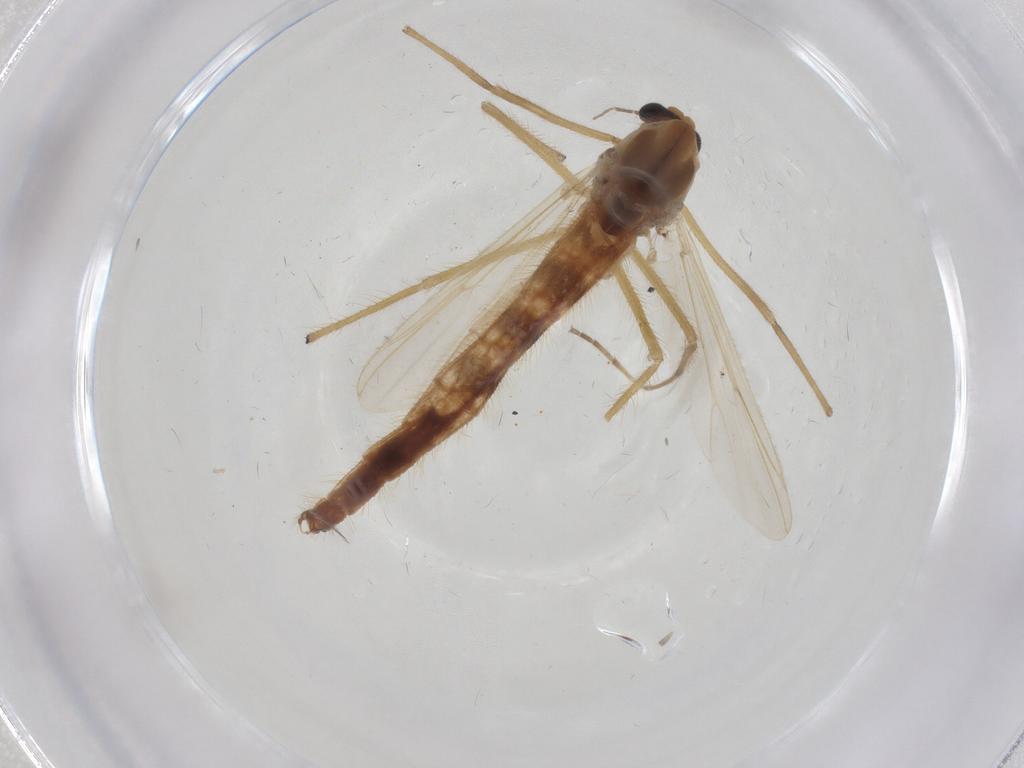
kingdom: Animalia
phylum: Arthropoda
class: Insecta
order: Diptera
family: Chironomidae
